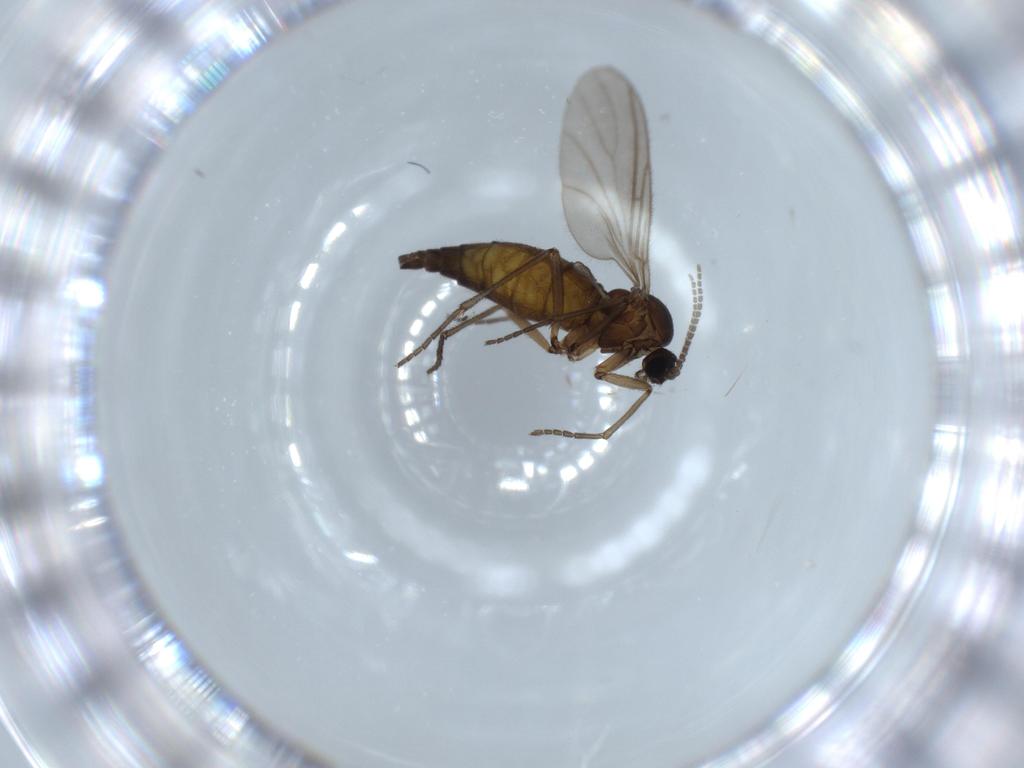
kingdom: Animalia
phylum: Arthropoda
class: Insecta
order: Diptera
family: Sciaridae
